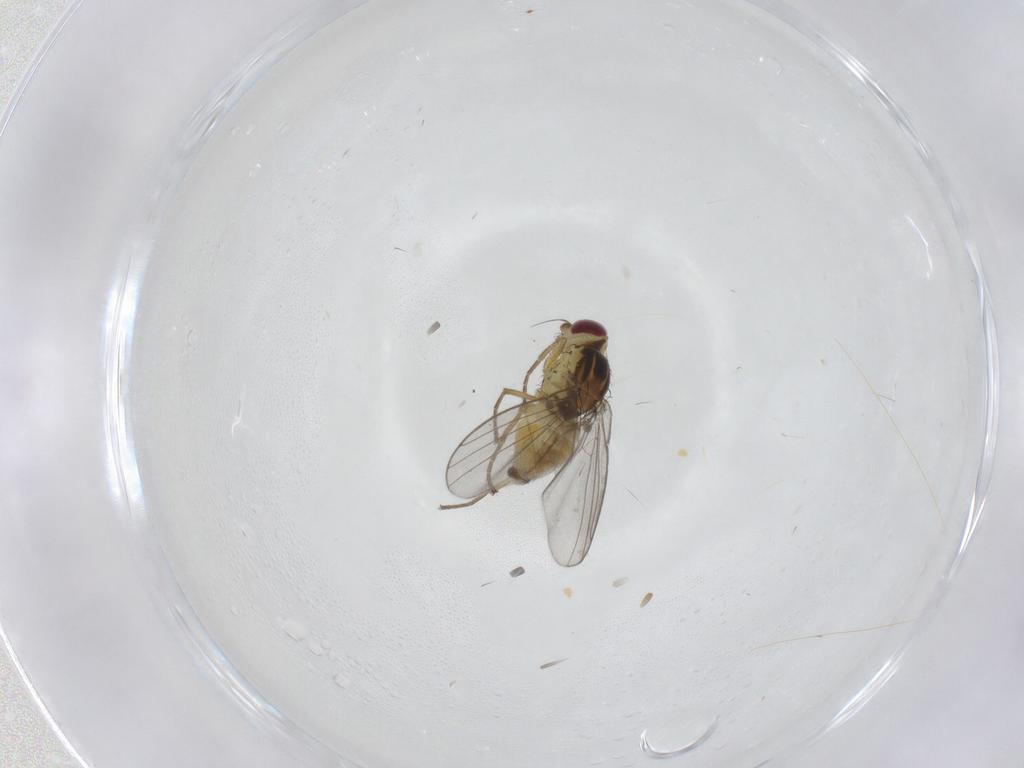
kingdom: Animalia
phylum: Arthropoda
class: Insecta
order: Diptera
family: Agromyzidae
